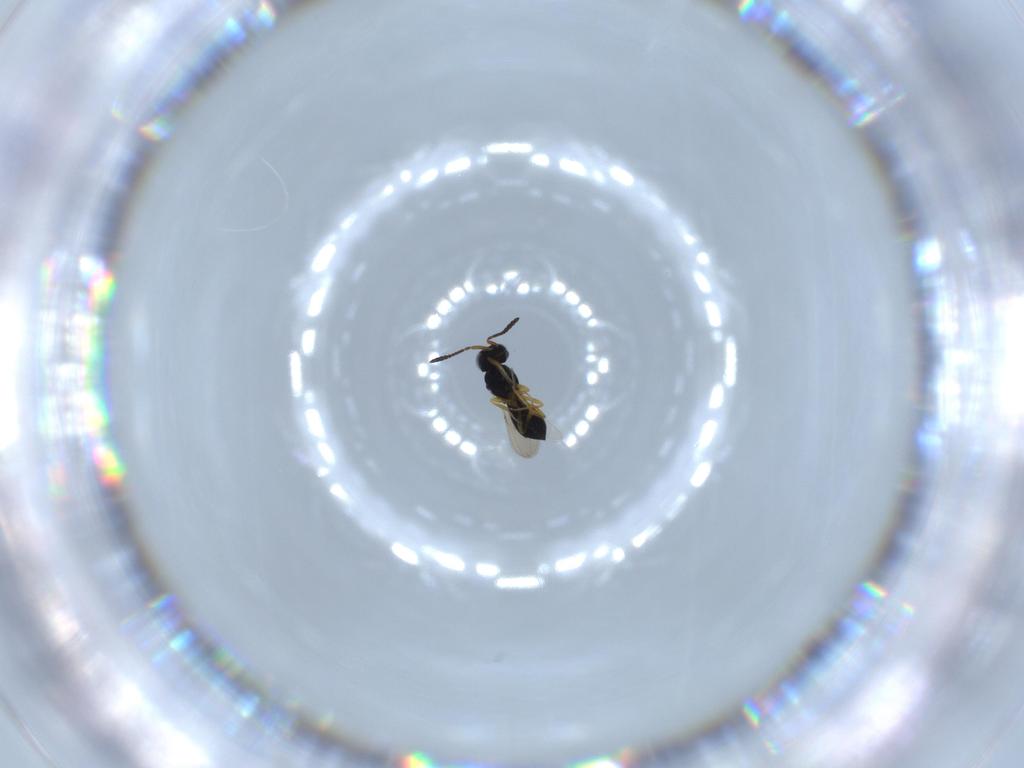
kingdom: Animalia
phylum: Arthropoda
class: Insecta
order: Hymenoptera
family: Scelionidae
